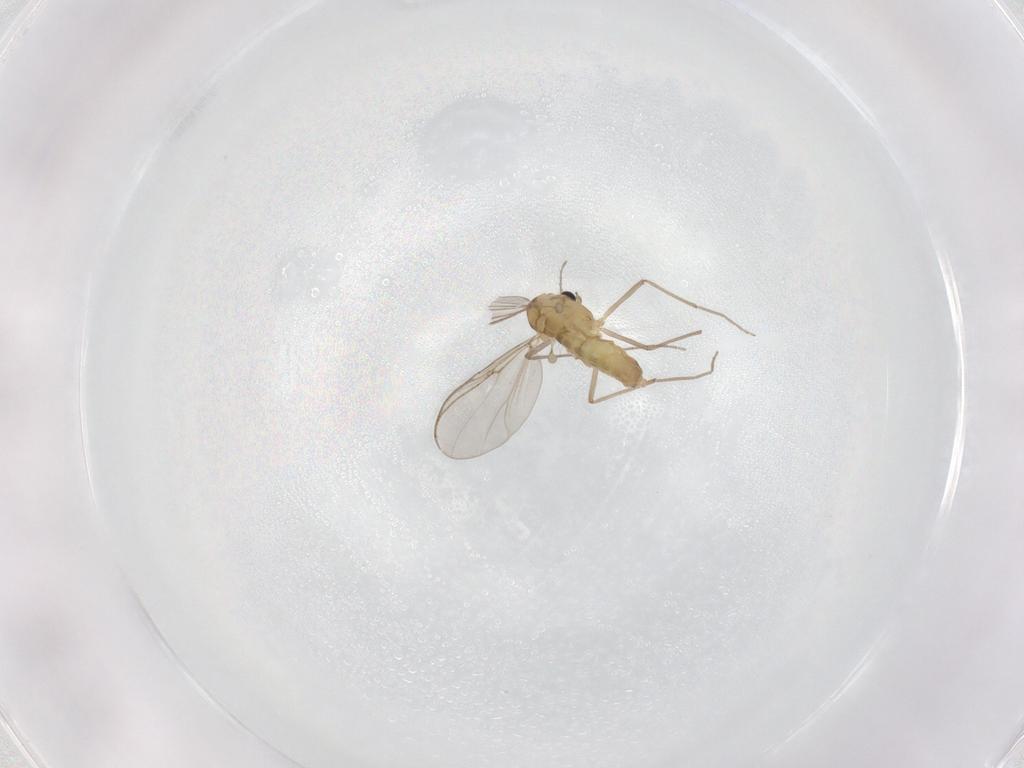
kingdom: Animalia
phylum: Arthropoda
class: Insecta
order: Diptera
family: Chironomidae
